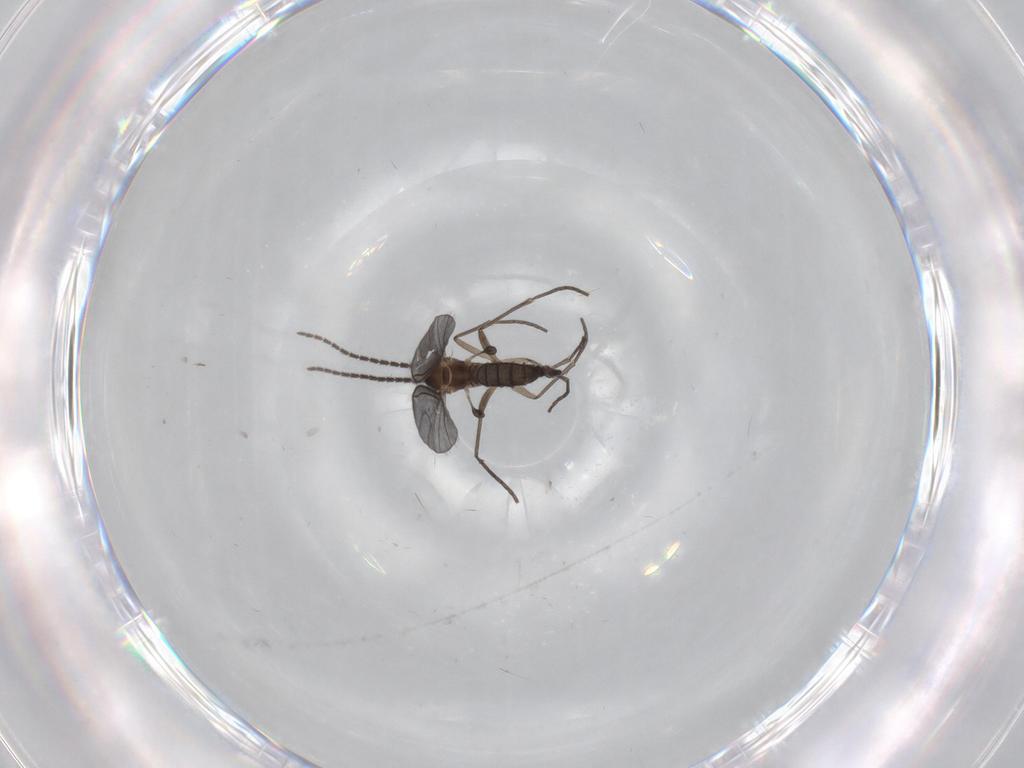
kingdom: Animalia
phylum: Arthropoda
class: Insecta
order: Diptera
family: Sciaridae
